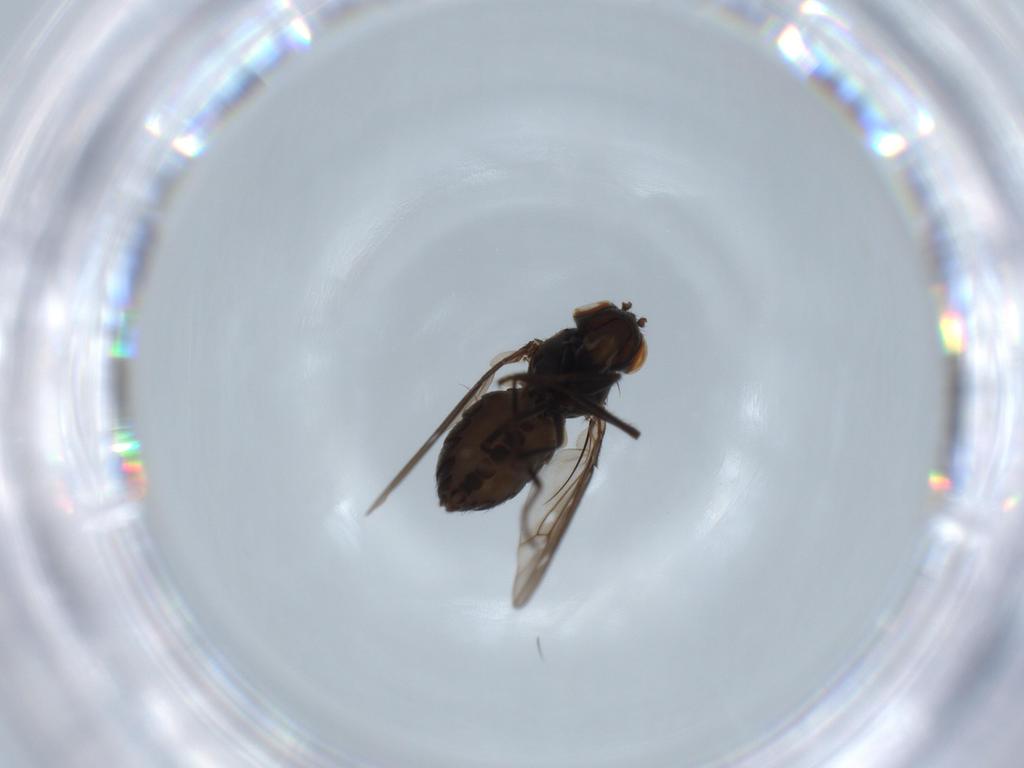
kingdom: Animalia
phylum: Arthropoda
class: Insecta
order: Diptera
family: Ephydridae
